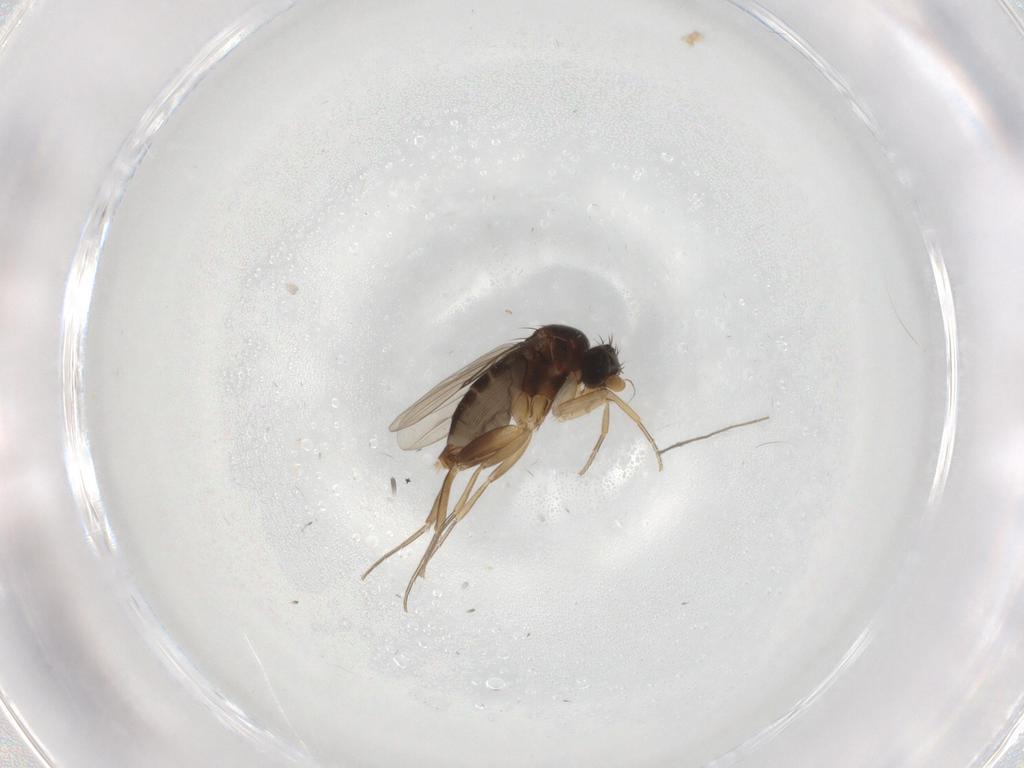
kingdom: Animalia
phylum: Arthropoda
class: Insecta
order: Diptera
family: Phoridae
